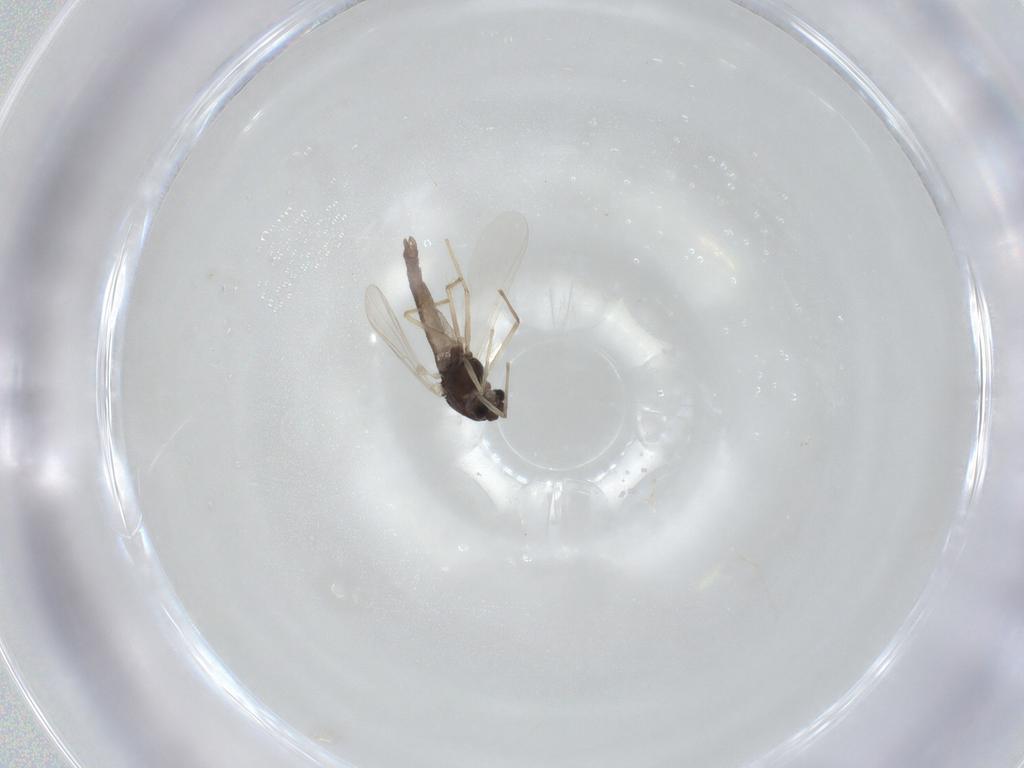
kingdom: Animalia
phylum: Arthropoda
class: Insecta
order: Diptera
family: Chironomidae
